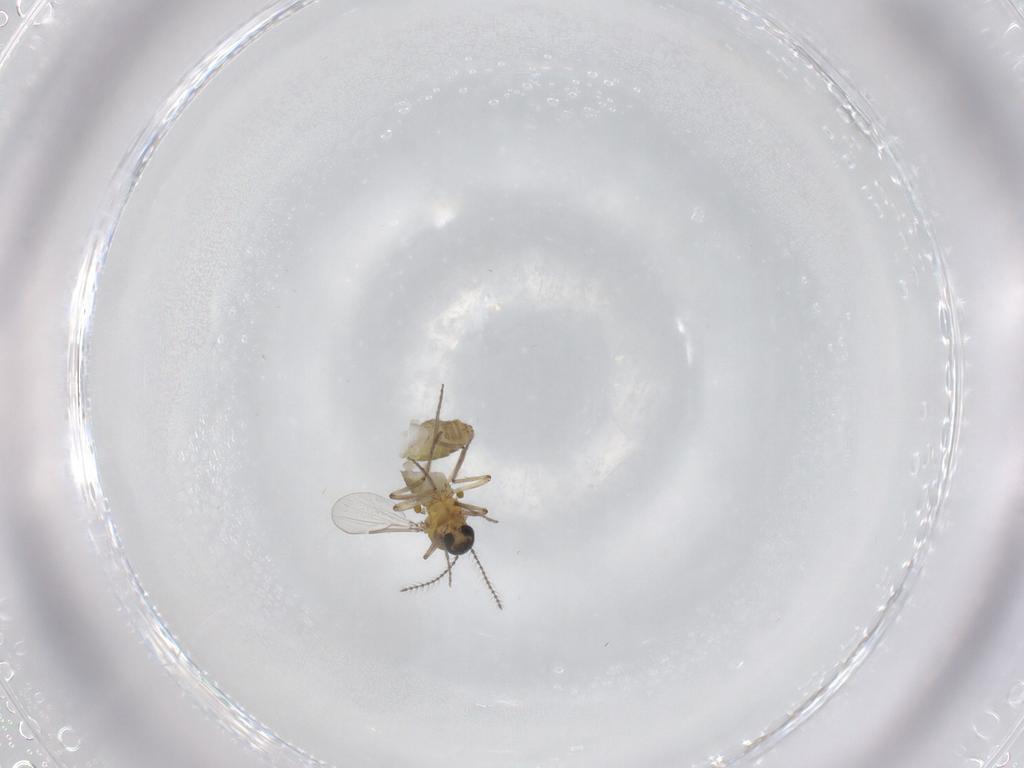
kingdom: Animalia
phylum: Arthropoda
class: Insecta
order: Diptera
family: Ceratopogonidae
